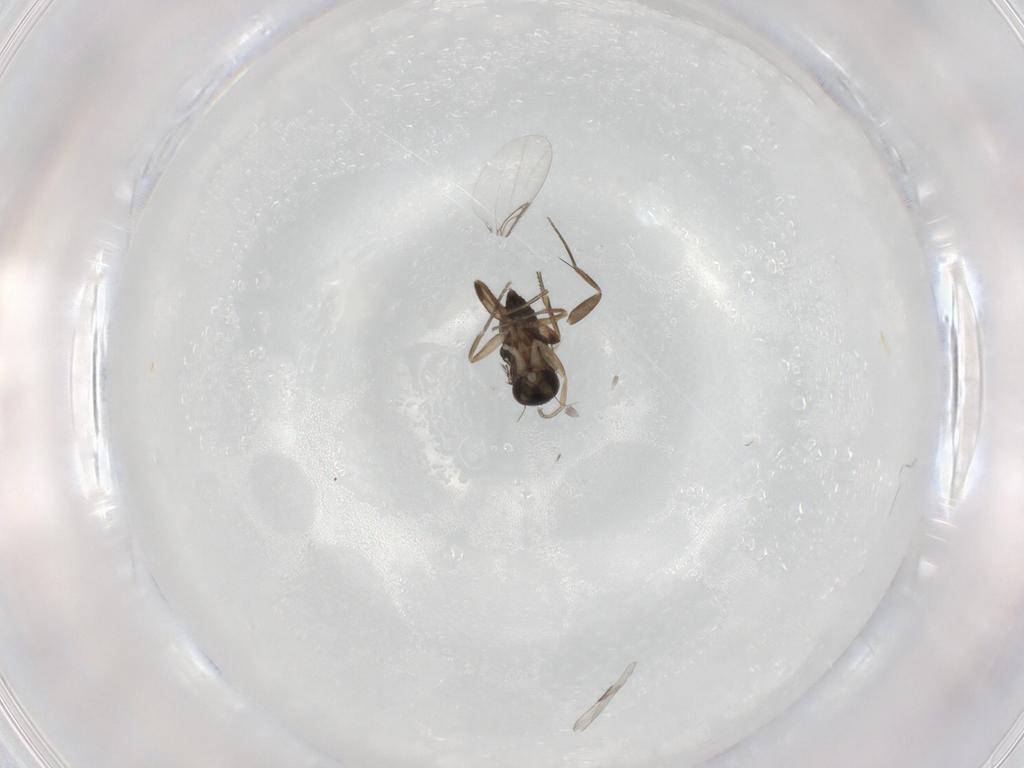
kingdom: Animalia
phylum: Arthropoda
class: Insecta
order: Diptera
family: Phoridae
